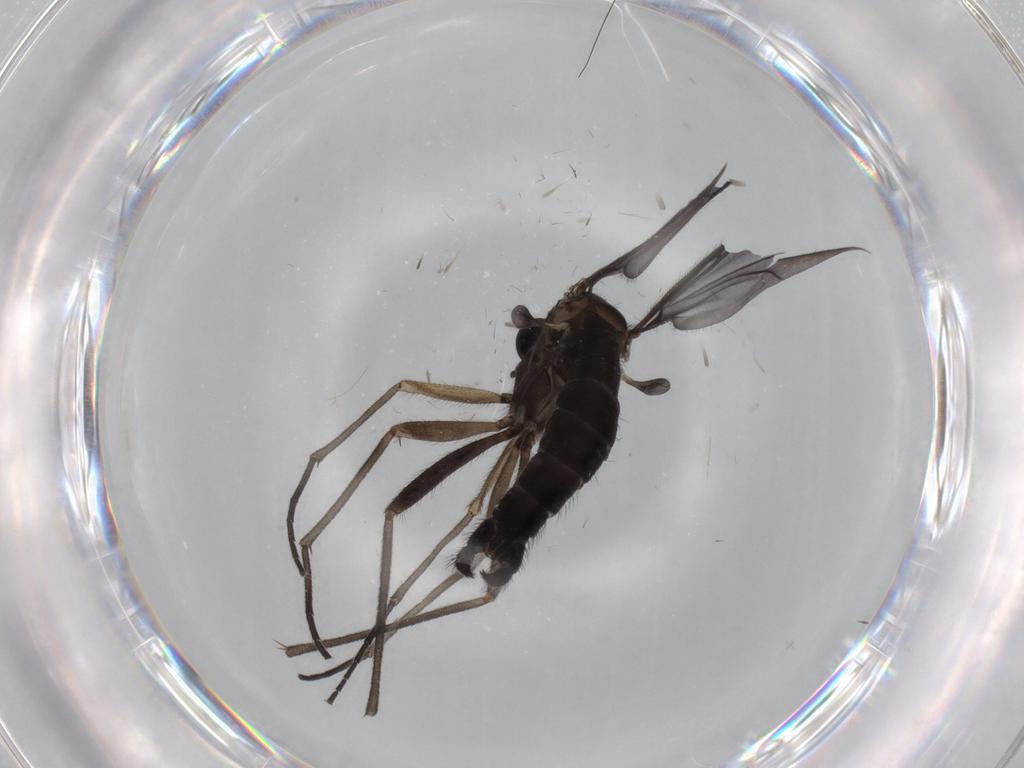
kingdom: Animalia
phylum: Arthropoda
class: Insecta
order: Diptera
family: Sciaridae
